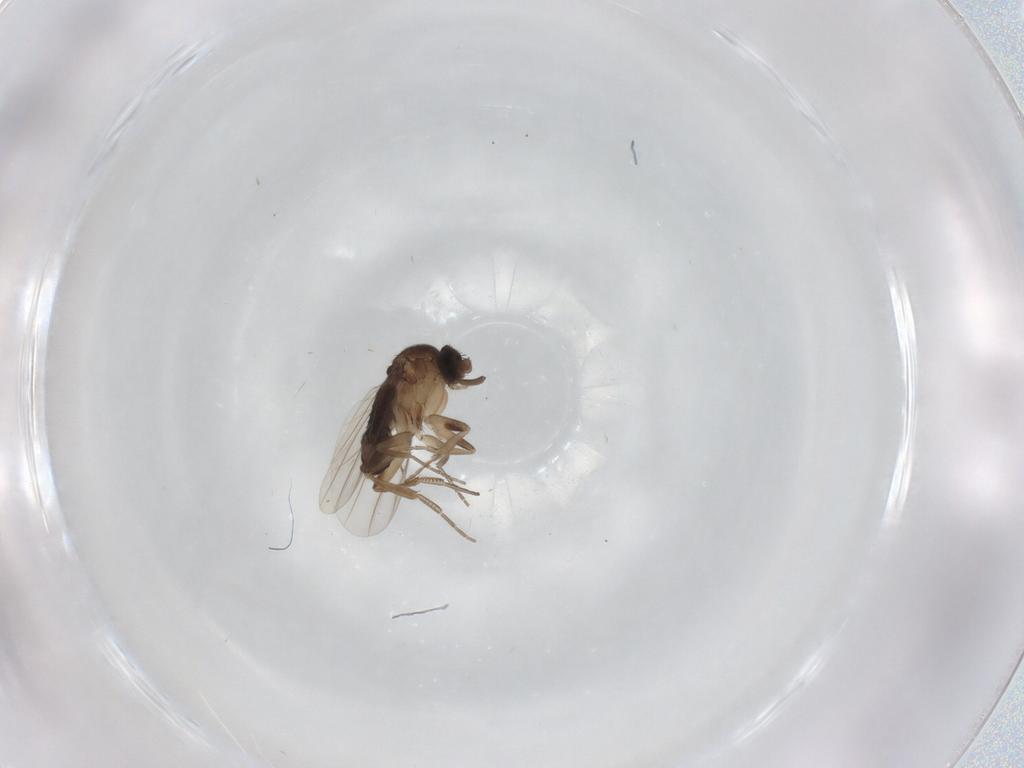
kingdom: Animalia
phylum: Arthropoda
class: Insecta
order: Diptera
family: Phoridae
